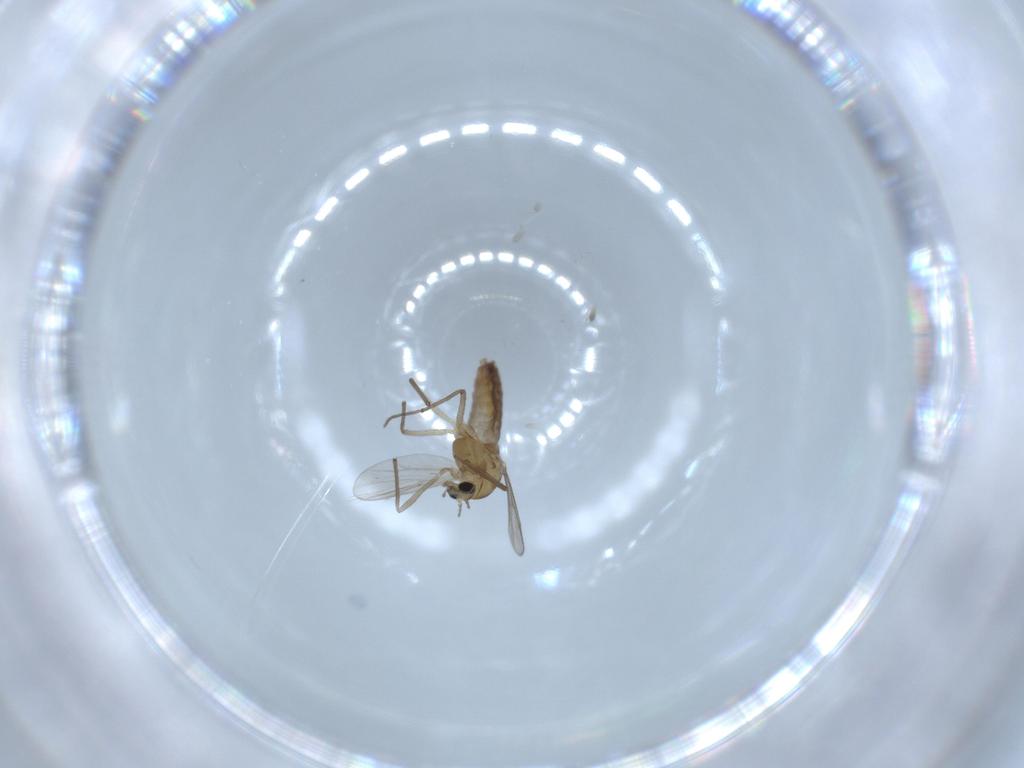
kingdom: Animalia
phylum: Arthropoda
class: Insecta
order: Diptera
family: Chironomidae
